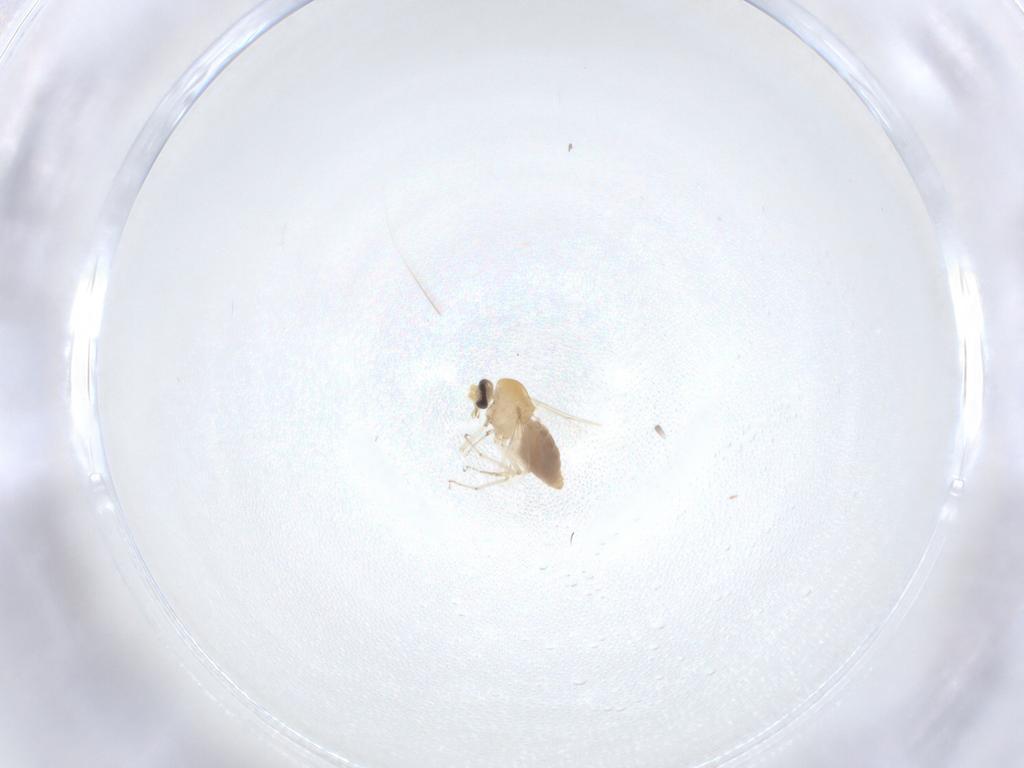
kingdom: Animalia
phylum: Arthropoda
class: Insecta
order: Diptera
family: Ceratopogonidae
